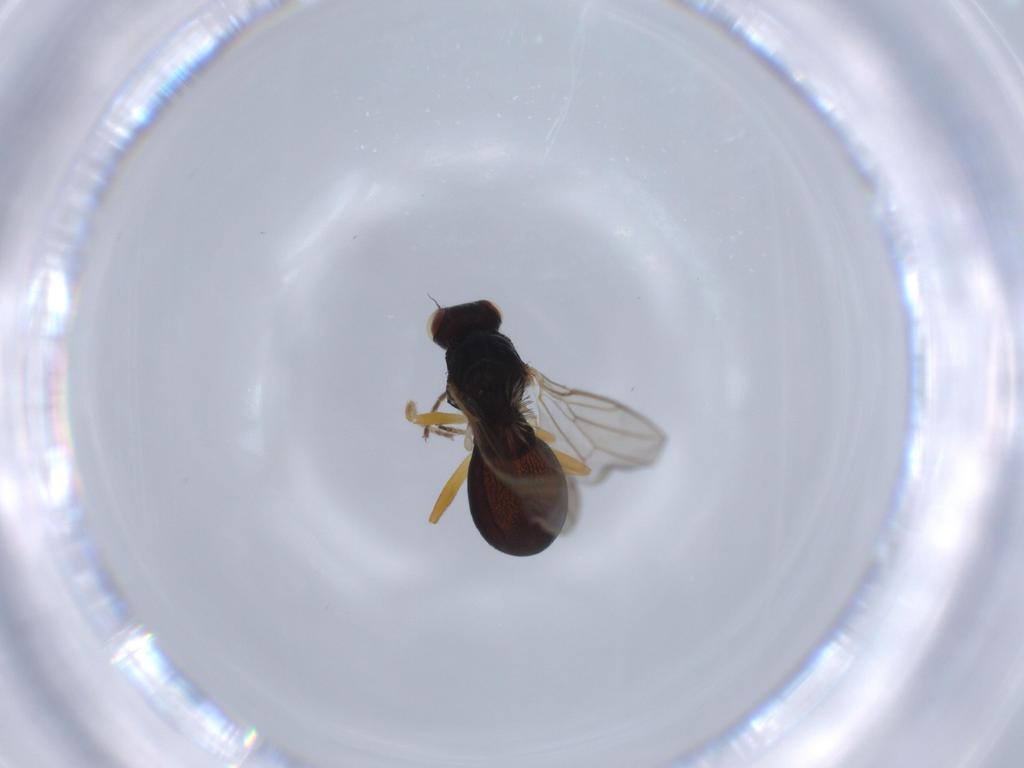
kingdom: Animalia
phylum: Arthropoda
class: Insecta
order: Diptera
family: Chloropidae
